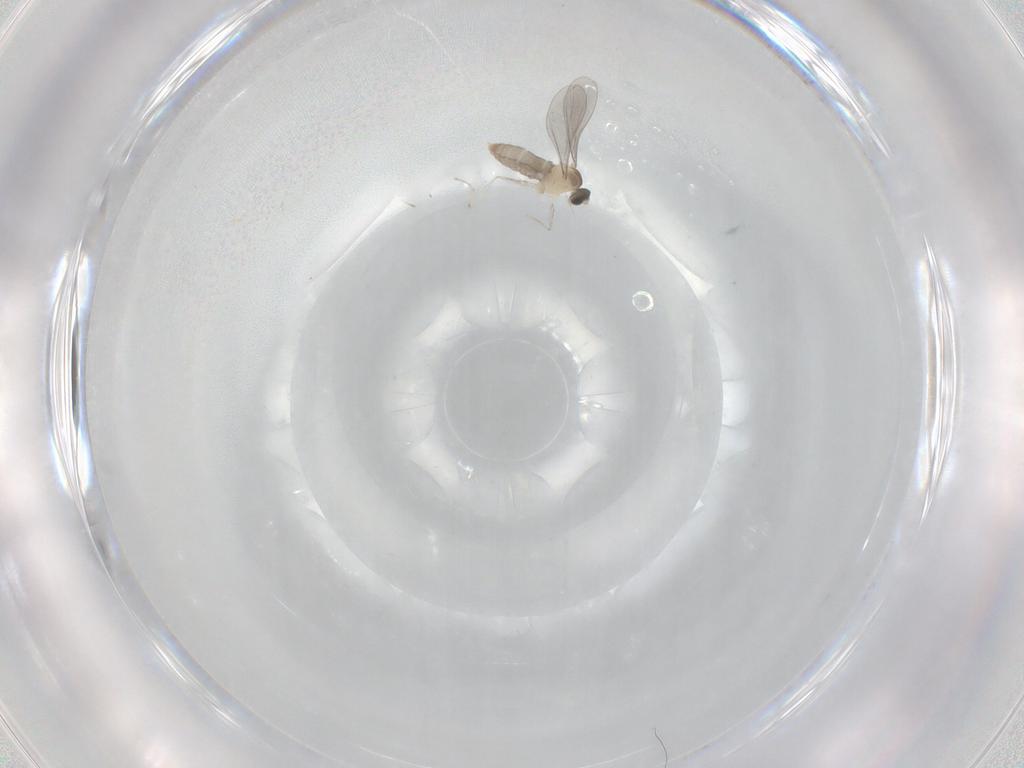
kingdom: Animalia
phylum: Arthropoda
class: Insecta
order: Diptera
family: Cecidomyiidae
